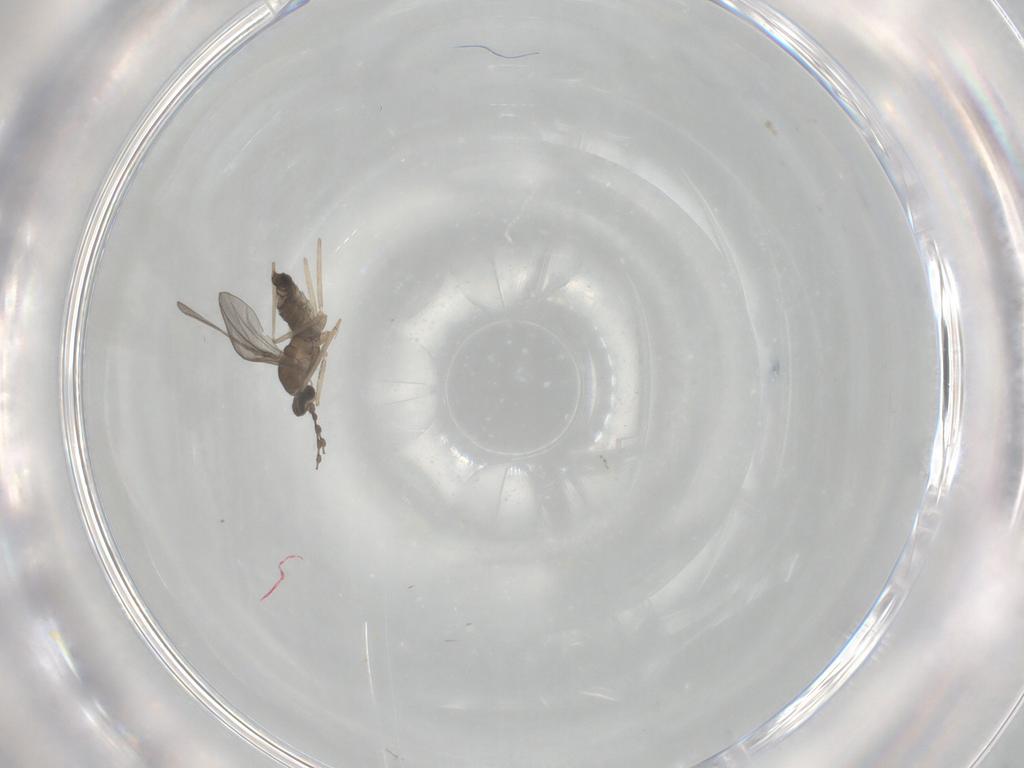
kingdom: Animalia
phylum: Arthropoda
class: Insecta
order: Diptera
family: Cecidomyiidae
